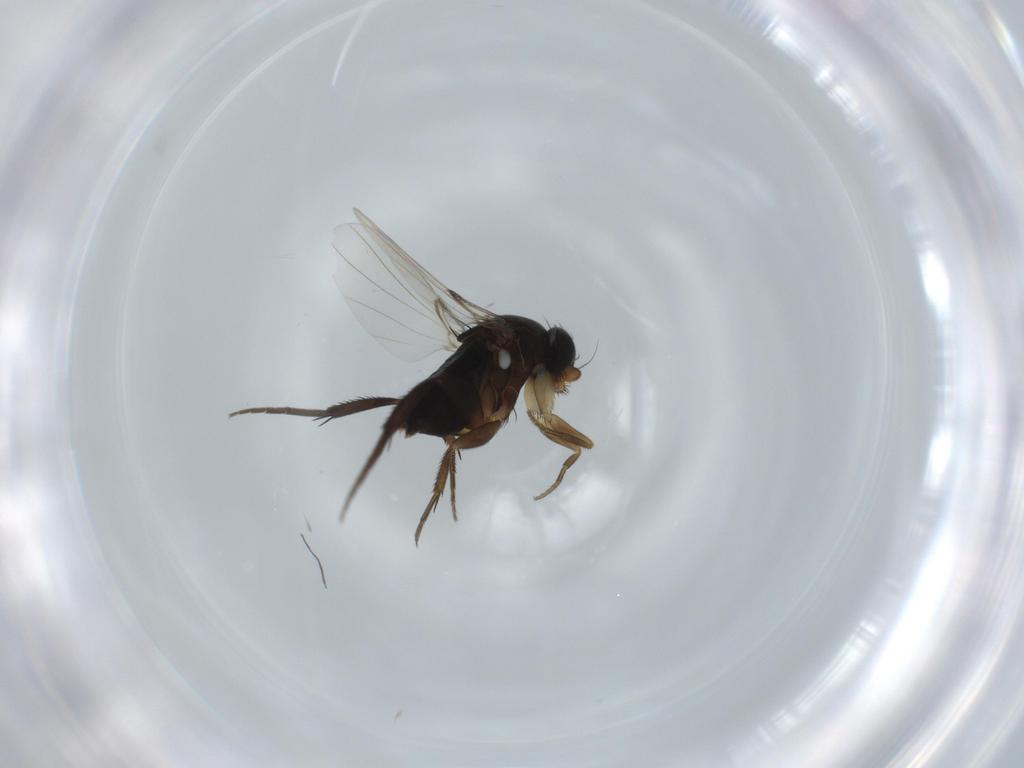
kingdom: Animalia
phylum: Arthropoda
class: Insecta
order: Diptera
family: Phoridae
